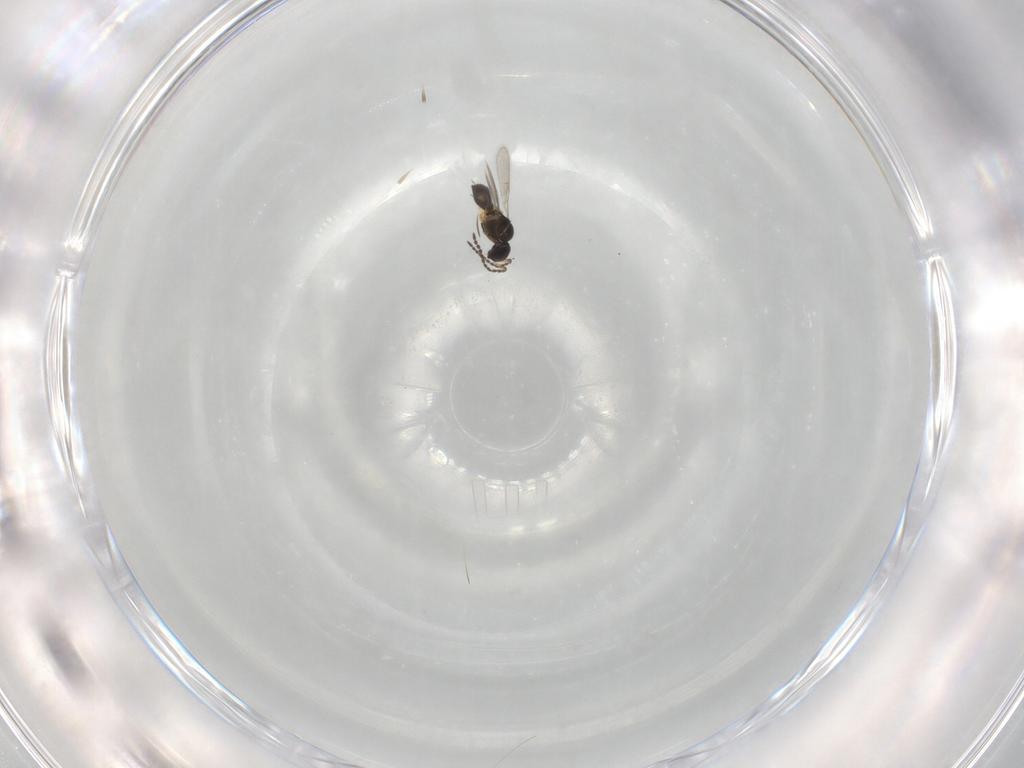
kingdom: Animalia
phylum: Arthropoda
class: Insecta
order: Hymenoptera
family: Scelionidae
